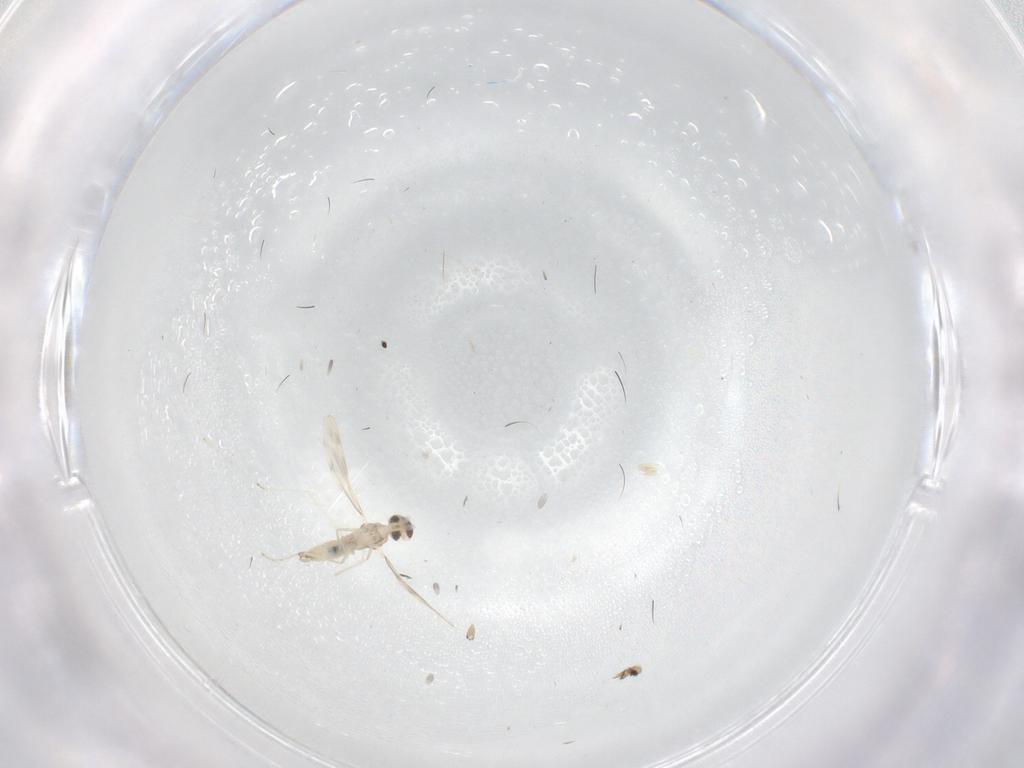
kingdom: Animalia
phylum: Arthropoda
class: Insecta
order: Diptera
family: Cecidomyiidae
